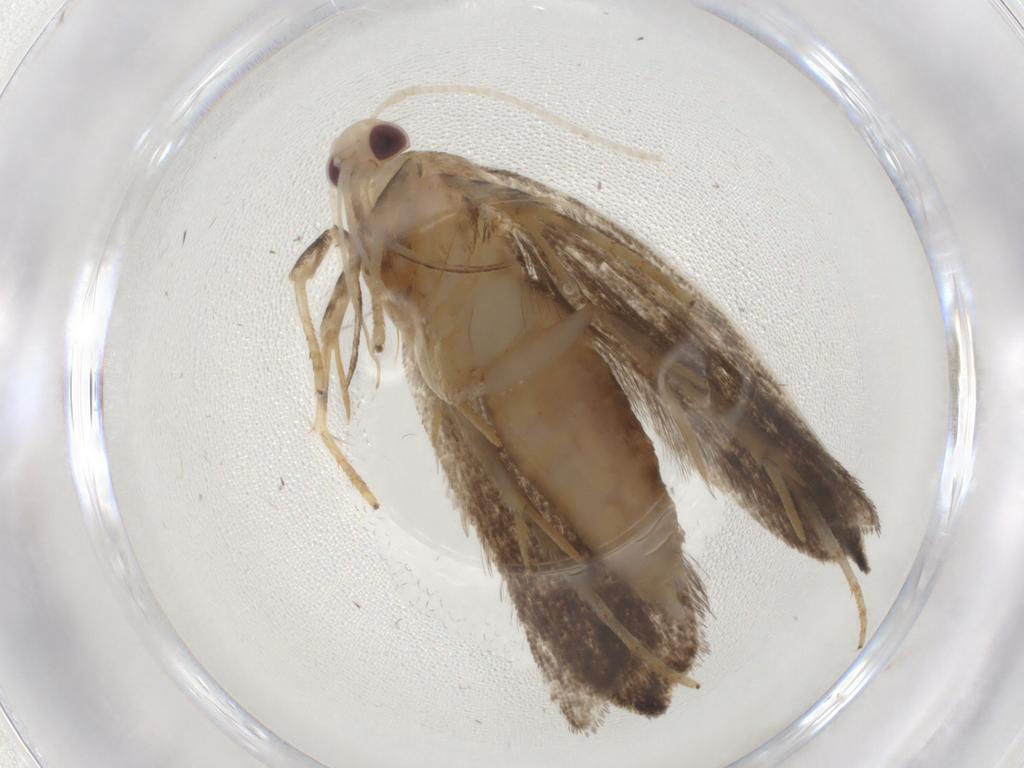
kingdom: Animalia
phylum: Arthropoda
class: Insecta
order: Lepidoptera
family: Gelechiidae
